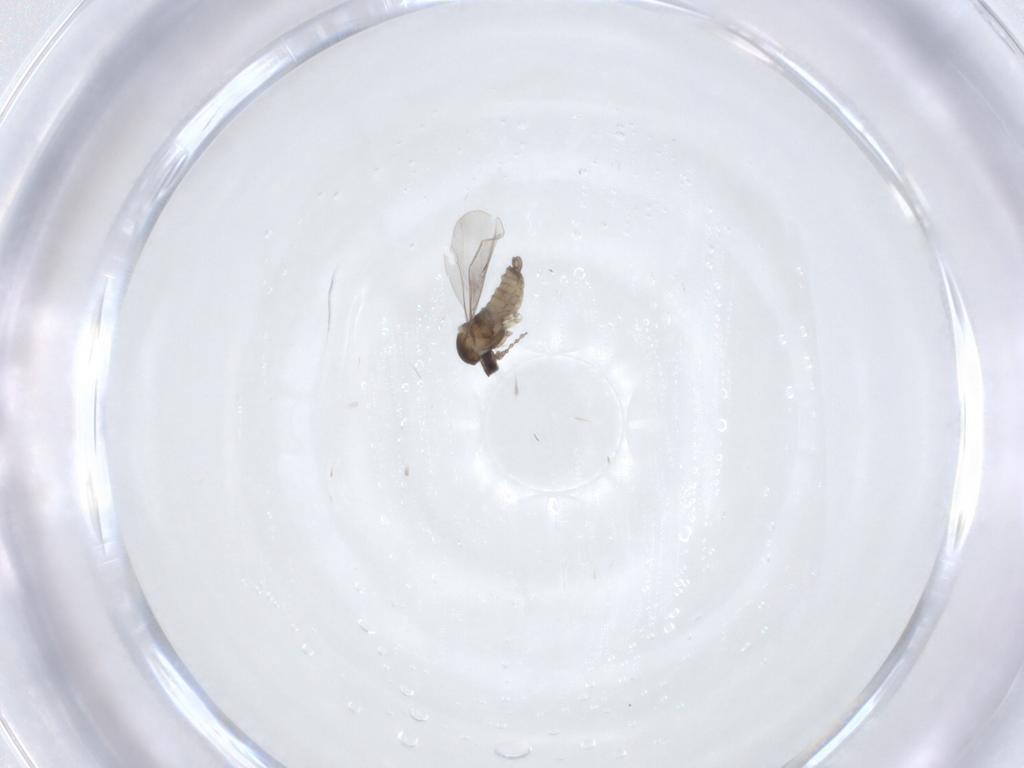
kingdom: Animalia
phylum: Arthropoda
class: Insecta
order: Diptera
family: Cecidomyiidae
